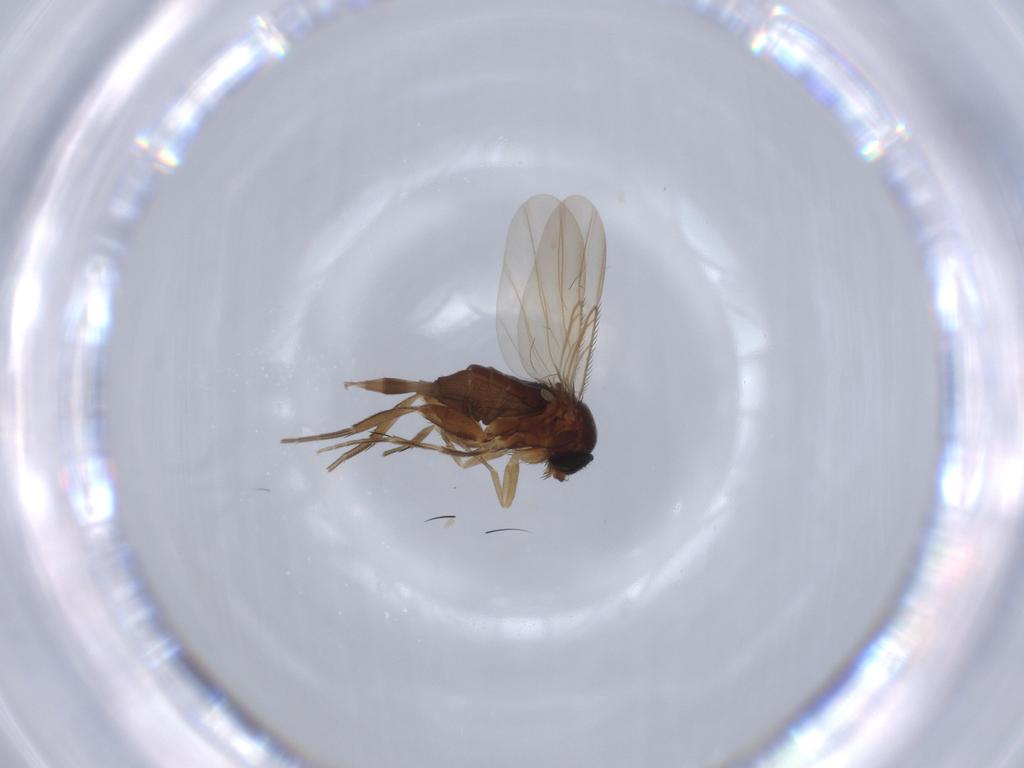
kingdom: Animalia
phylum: Arthropoda
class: Insecta
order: Diptera
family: Phoridae
